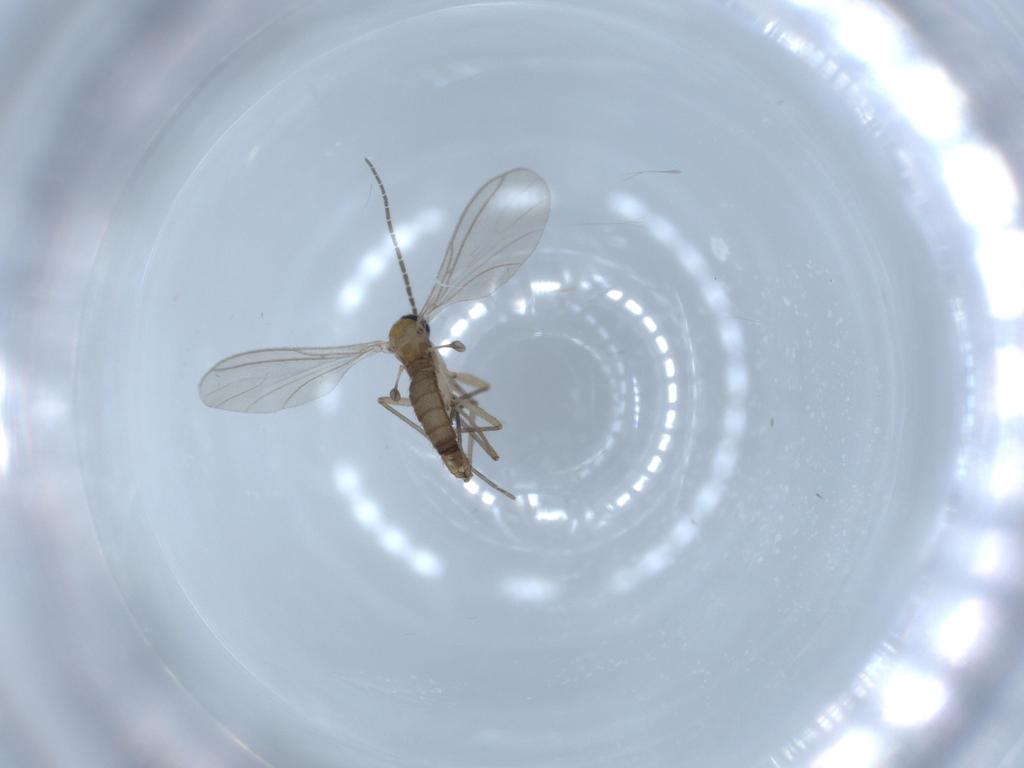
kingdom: Animalia
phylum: Arthropoda
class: Insecta
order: Diptera
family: Sciaridae
